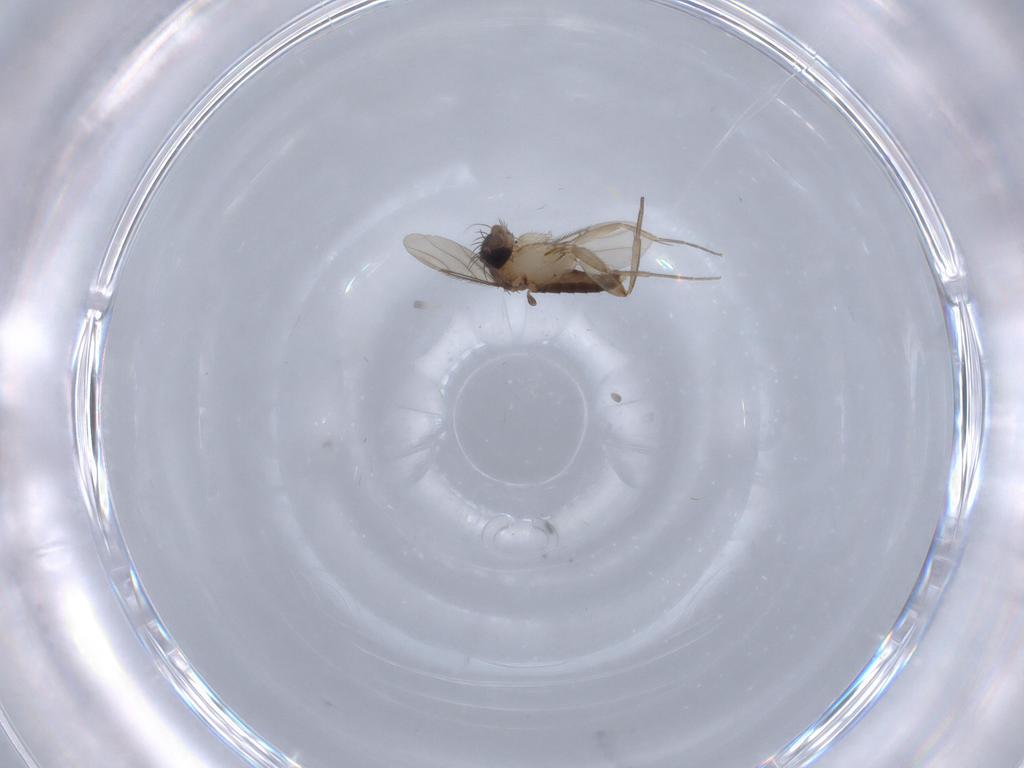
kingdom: Animalia
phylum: Arthropoda
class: Insecta
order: Diptera
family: Phoridae
